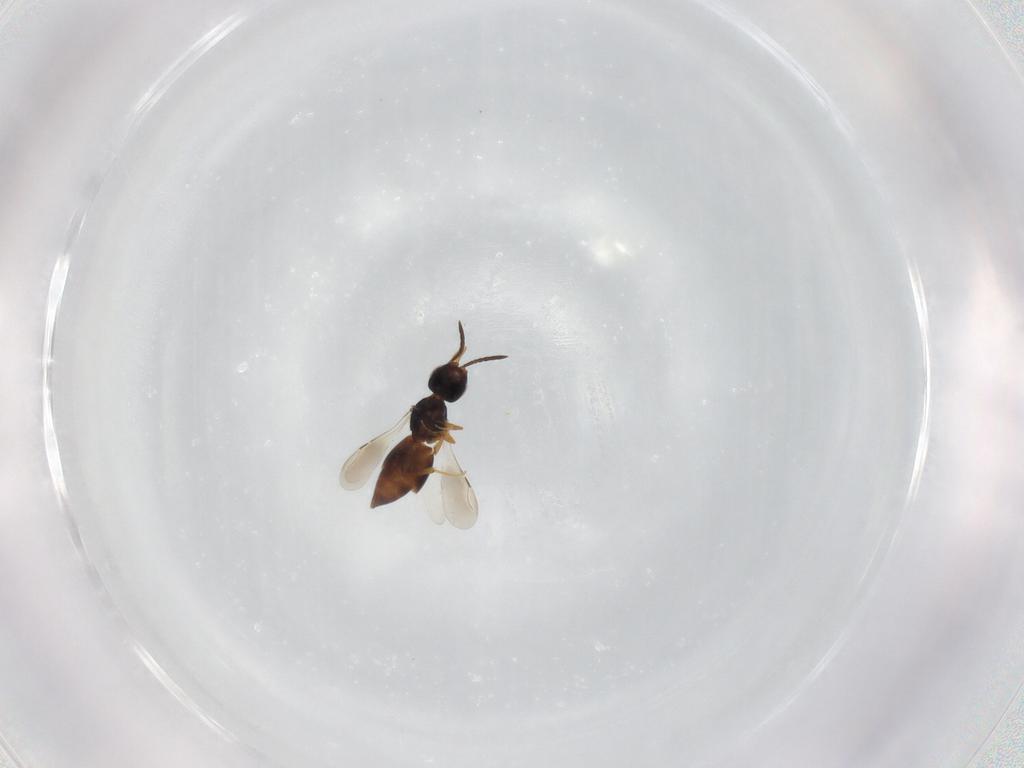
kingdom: Animalia
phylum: Arthropoda
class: Insecta
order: Hymenoptera
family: Ceraphronidae
